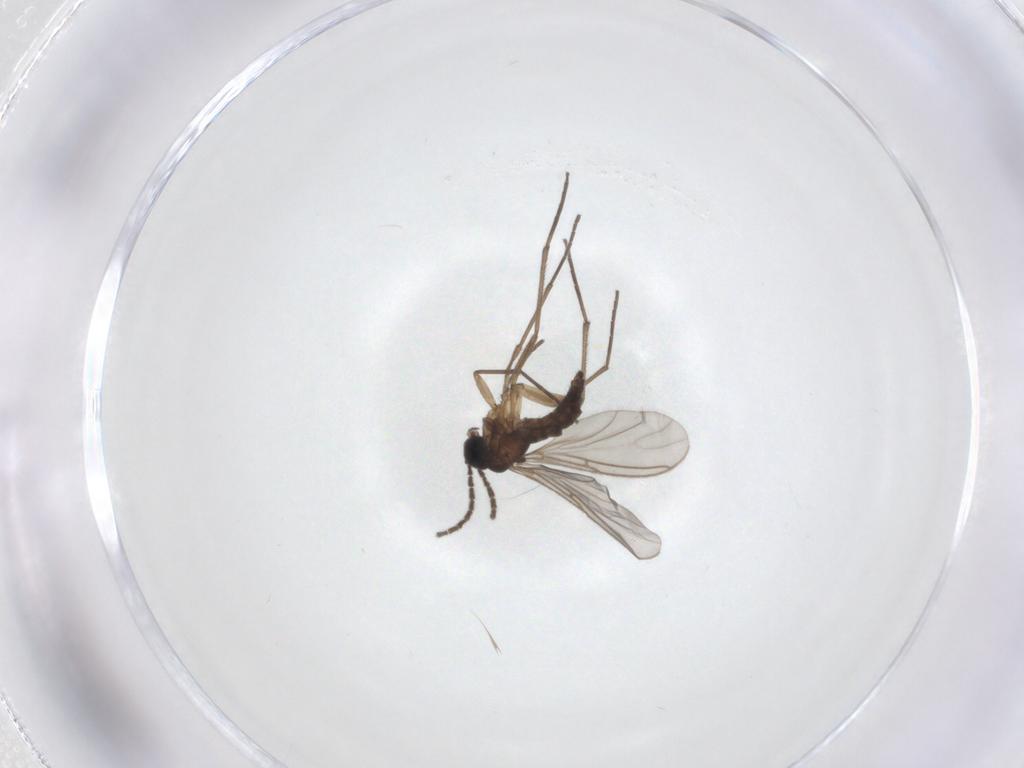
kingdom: Animalia
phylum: Arthropoda
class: Insecta
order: Diptera
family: Sciaridae
